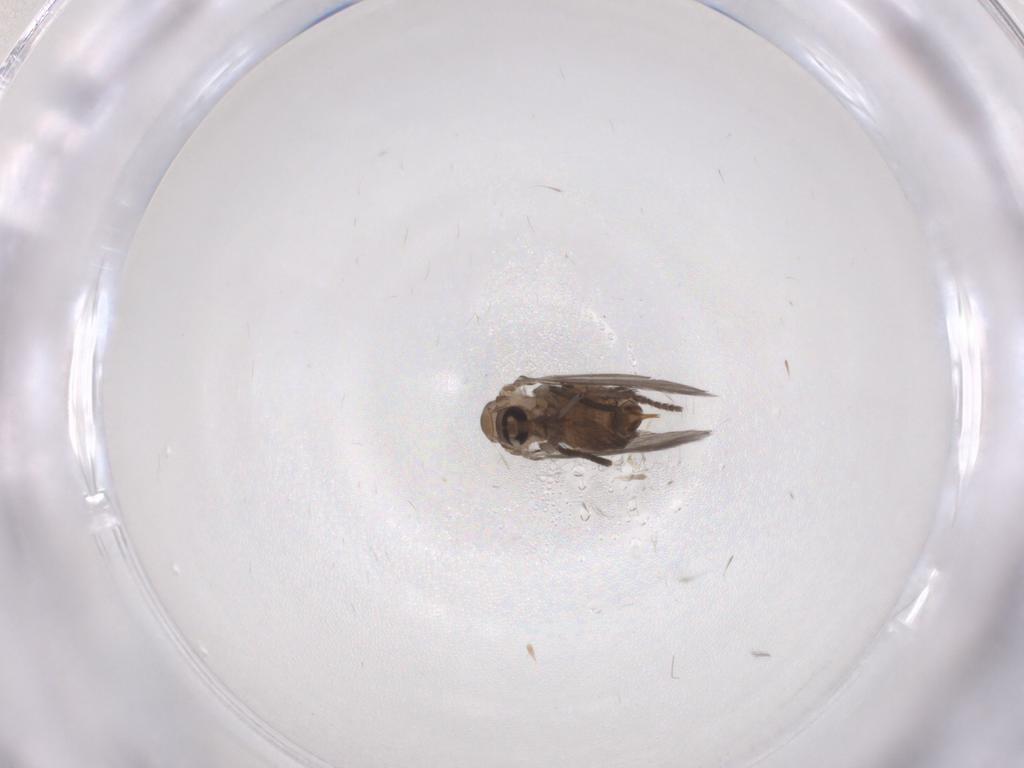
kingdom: Animalia
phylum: Arthropoda
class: Insecta
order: Diptera
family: Psychodidae
